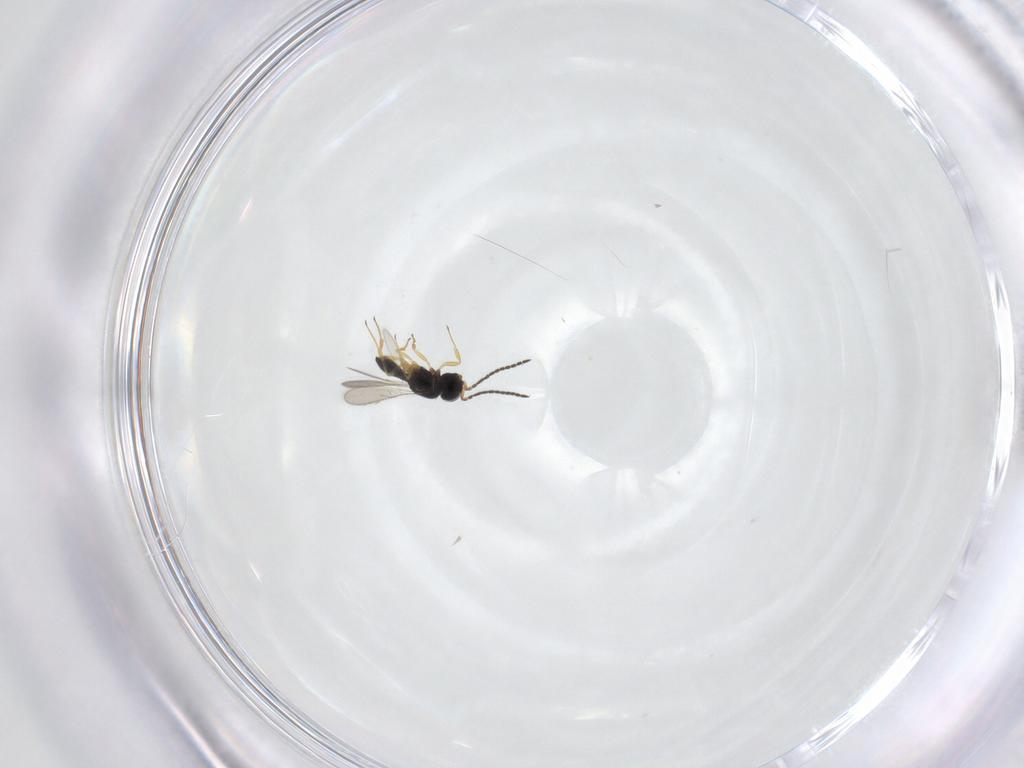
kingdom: Animalia
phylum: Arthropoda
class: Insecta
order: Hymenoptera
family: Scelionidae
